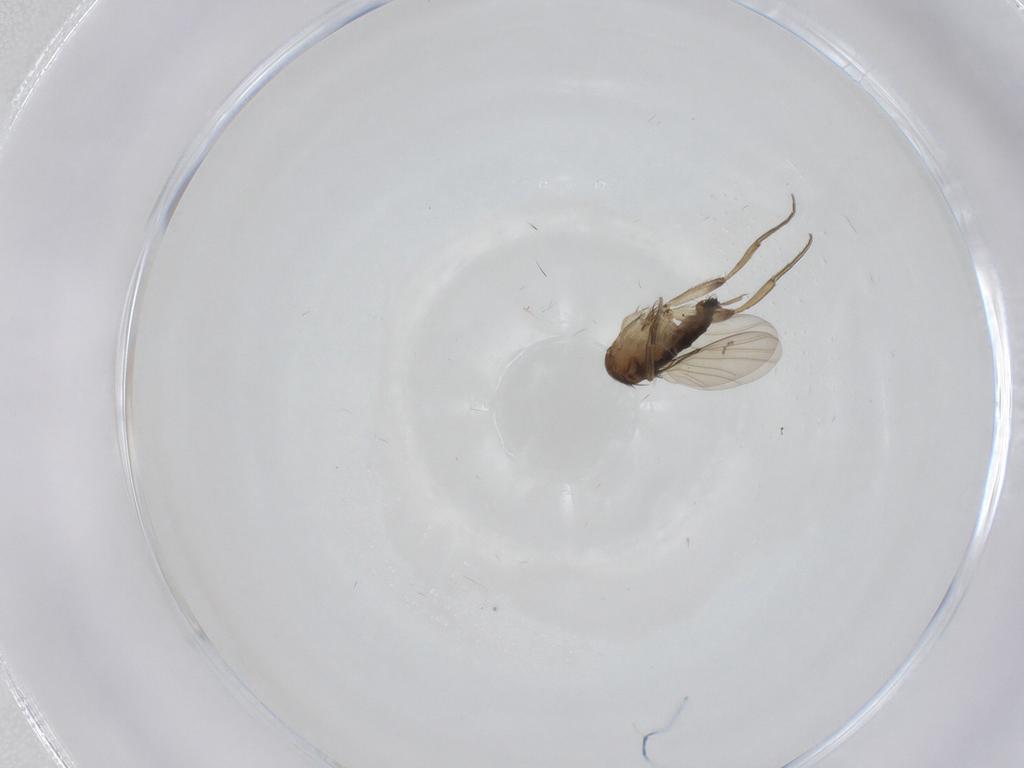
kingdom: Animalia
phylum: Arthropoda
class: Insecta
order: Diptera
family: Phoridae
